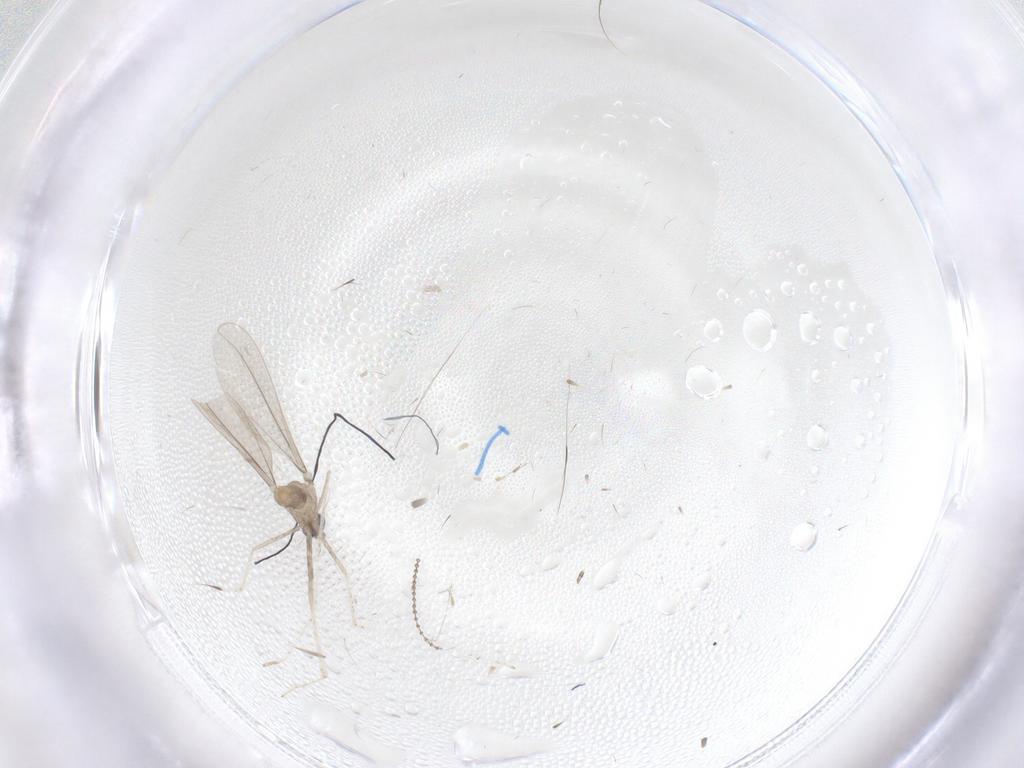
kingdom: Animalia
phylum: Arthropoda
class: Insecta
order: Diptera
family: Cecidomyiidae
